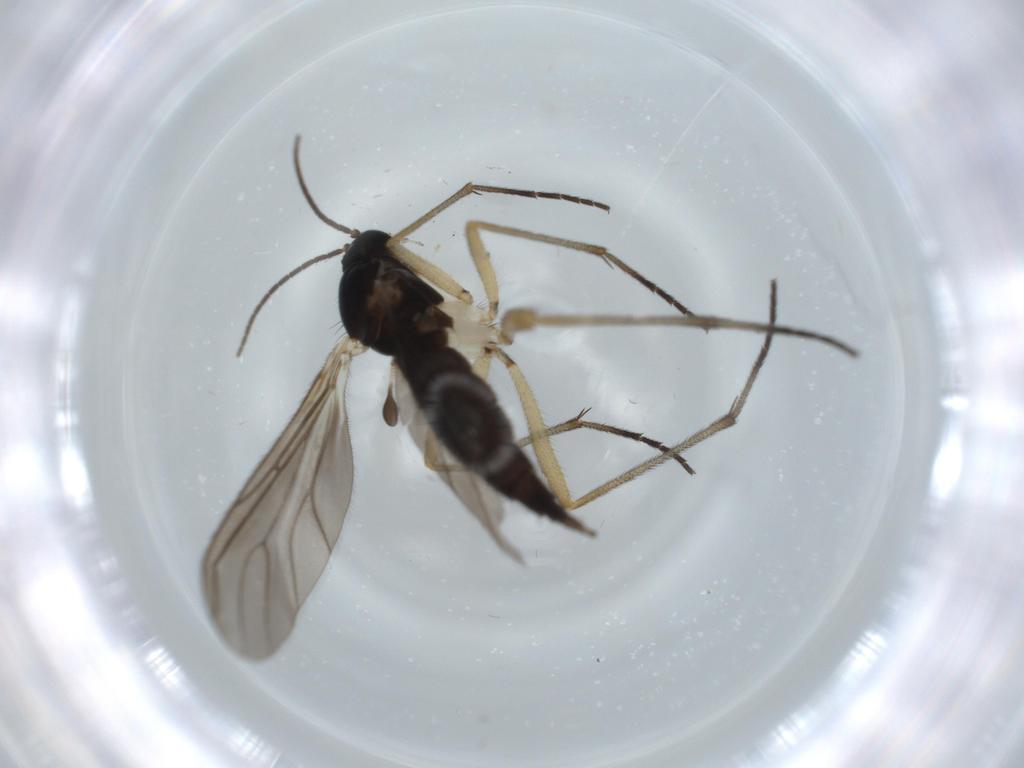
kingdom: Animalia
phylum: Arthropoda
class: Insecta
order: Diptera
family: Sciaridae
